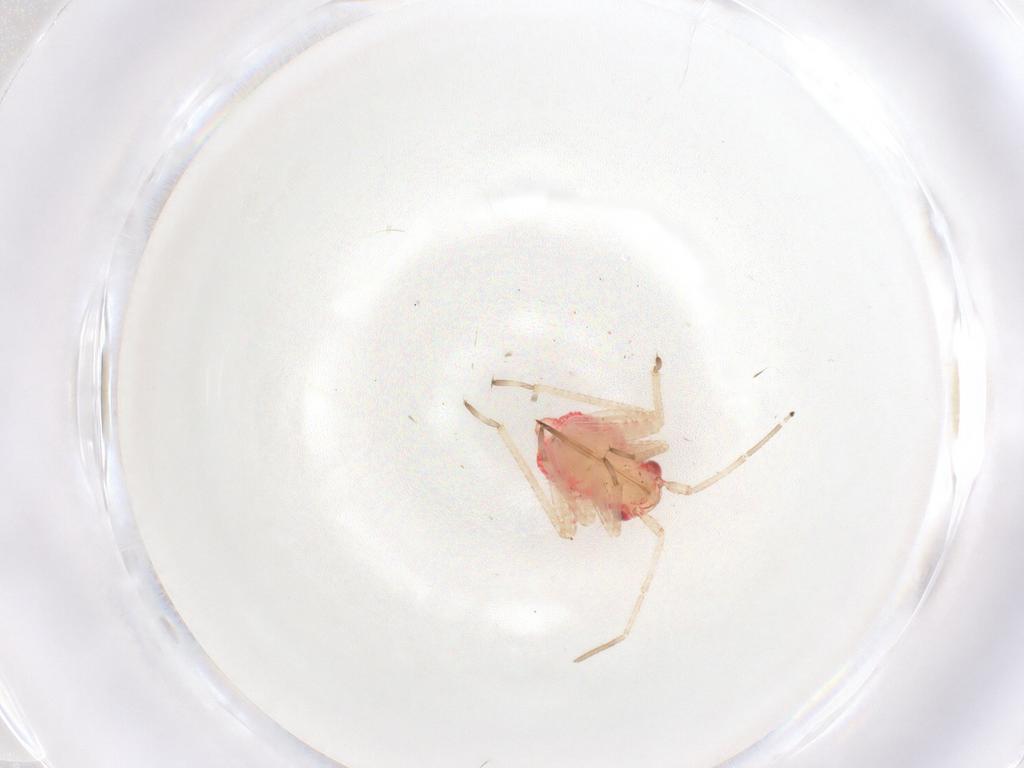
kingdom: Animalia
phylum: Arthropoda
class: Insecta
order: Hemiptera
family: Miridae
